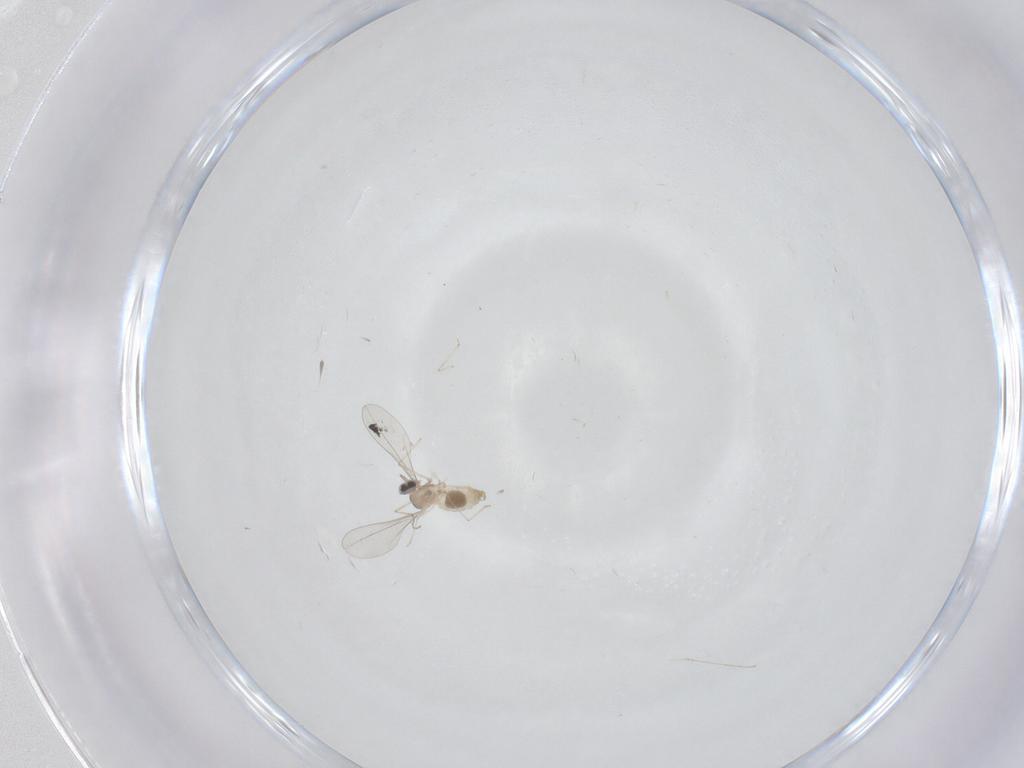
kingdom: Animalia
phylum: Arthropoda
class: Insecta
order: Diptera
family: Cecidomyiidae
